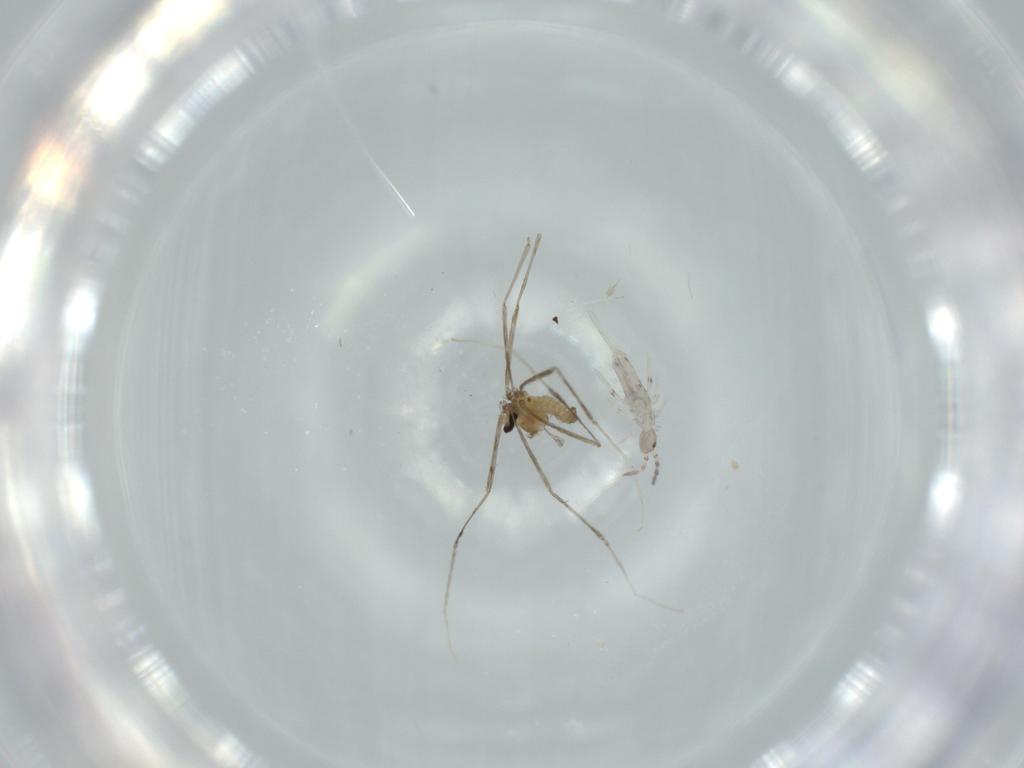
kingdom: Animalia
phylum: Arthropoda
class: Insecta
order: Diptera
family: Cecidomyiidae
